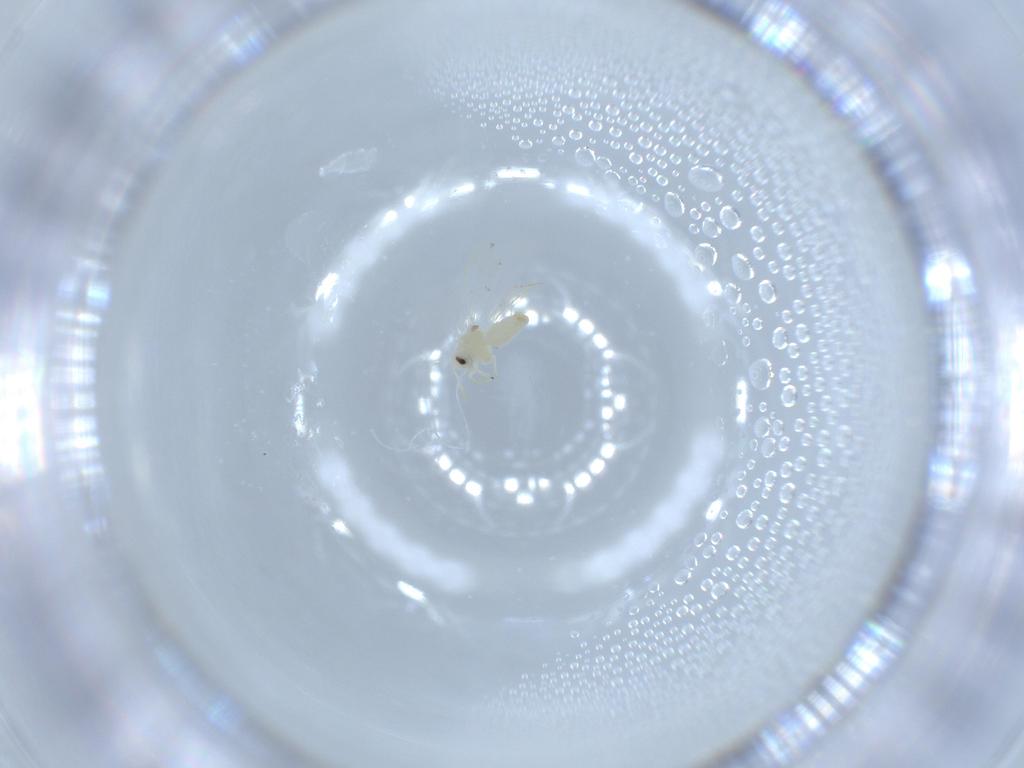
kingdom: Animalia
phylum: Arthropoda
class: Insecta
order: Hemiptera
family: Aleyrodidae
